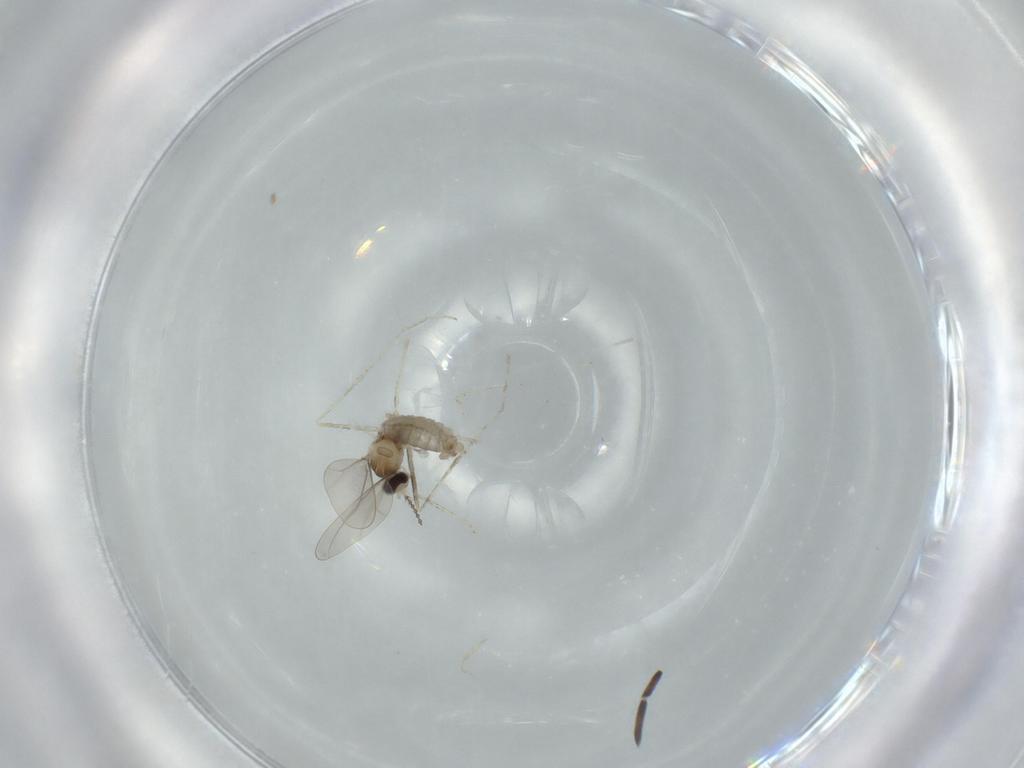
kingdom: Animalia
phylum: Arthropoda
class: Insecta
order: Diptera
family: Cecidomyiidae
